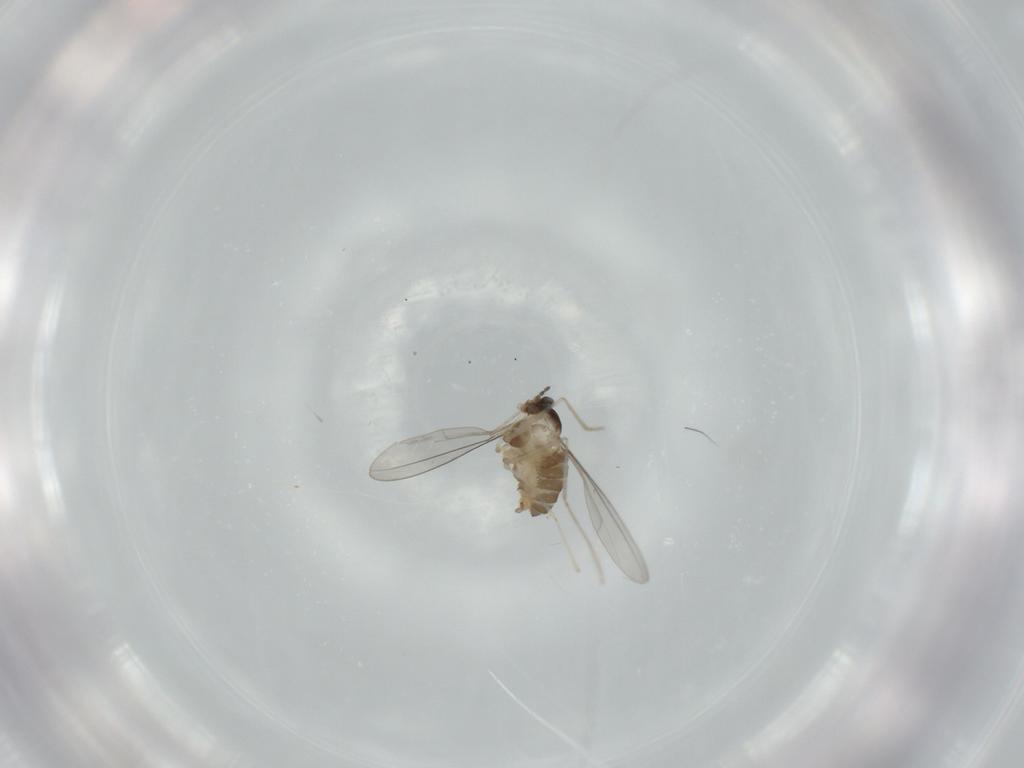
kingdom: Animalia
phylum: Arthropoda
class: Insecta
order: Diptera
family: Cecidomyiidae
